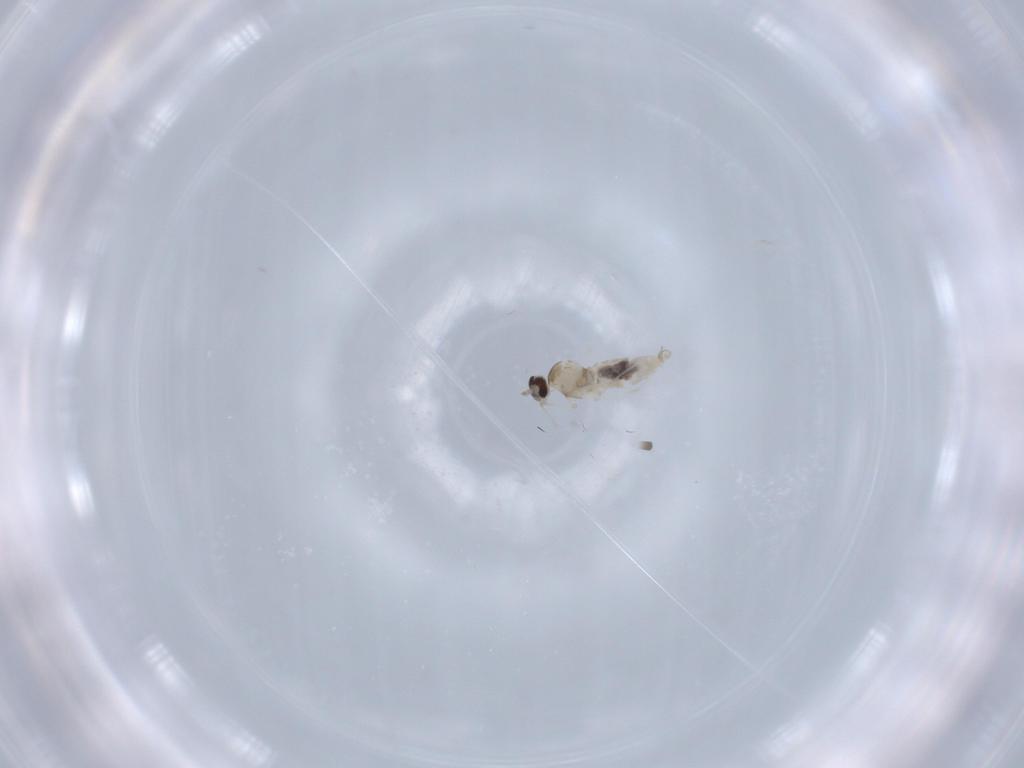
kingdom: Animalia
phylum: Arthropoda
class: Insecta
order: Diptera
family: Cecidomyiidae
